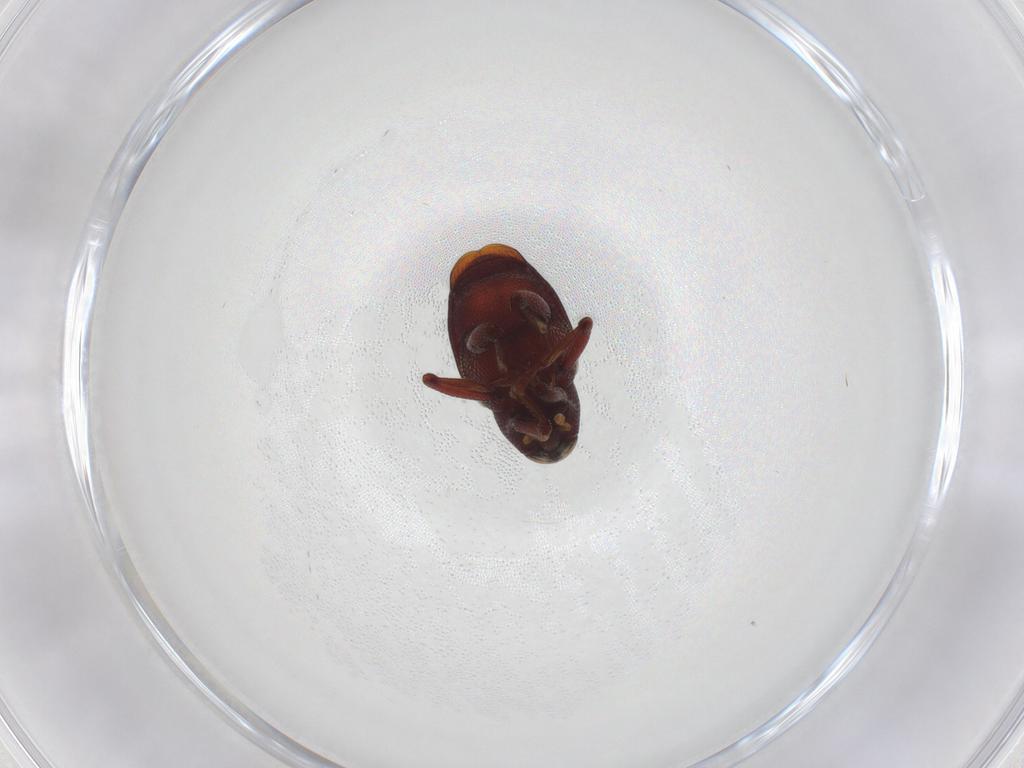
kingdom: Animalia
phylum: Arthropoda
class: Insecta
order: Coleoptera
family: Curculionidae
